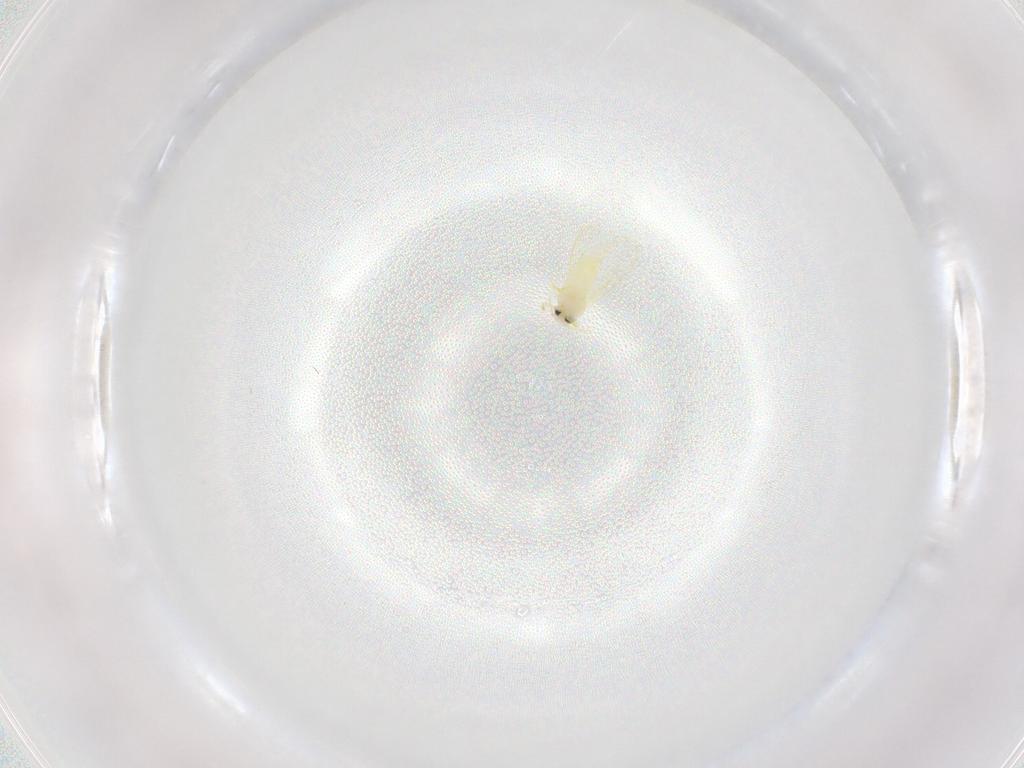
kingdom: Animalia
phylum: Arthropoda
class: Insecta
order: Hemiptera
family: Aleyrodidae
